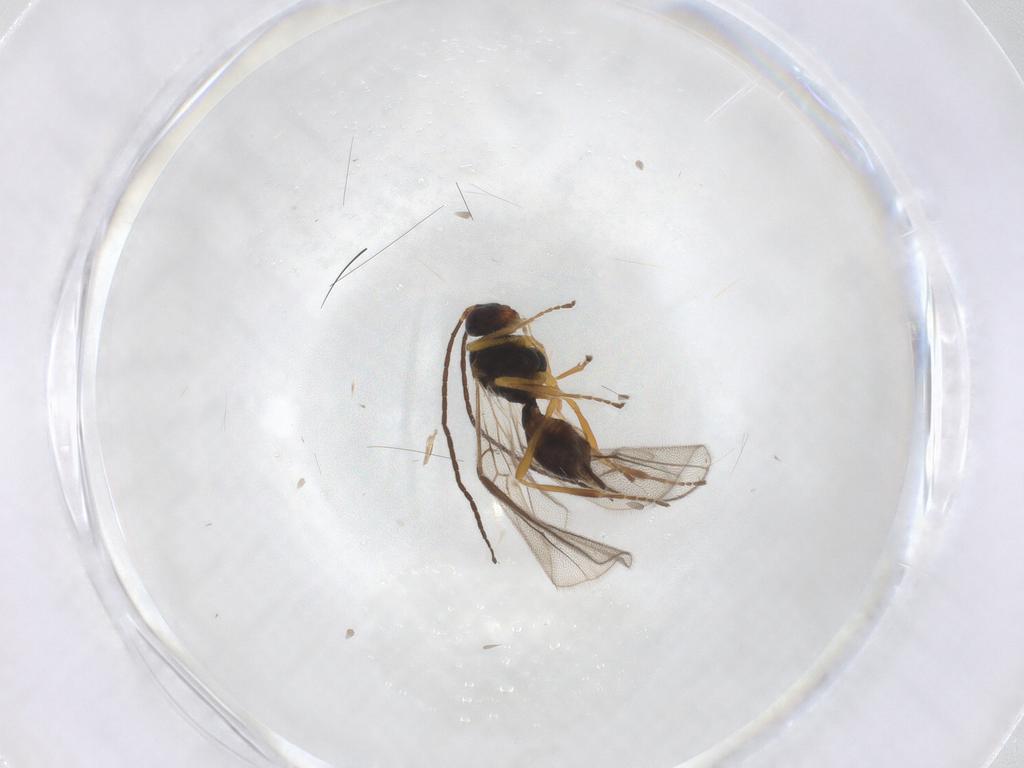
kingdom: Animalia
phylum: Arthropoda
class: Insecta
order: Hymenoptera
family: Braconidae
